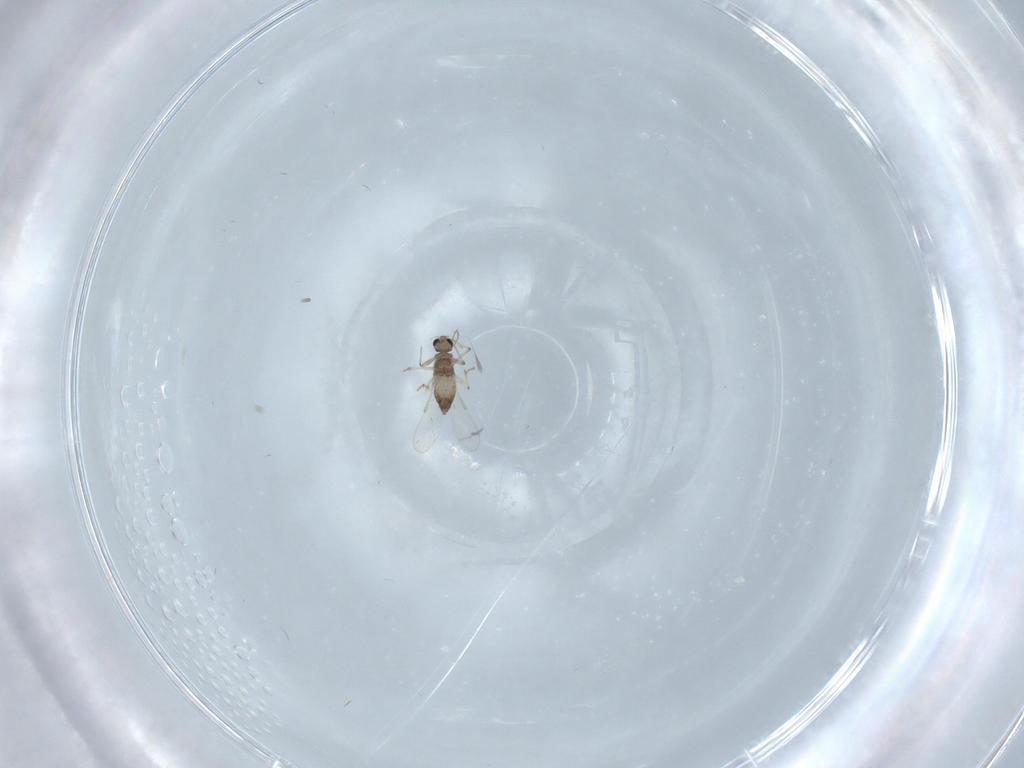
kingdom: Animalia
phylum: Arthropoda
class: Insecta
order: Diptera
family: Chironomidae
